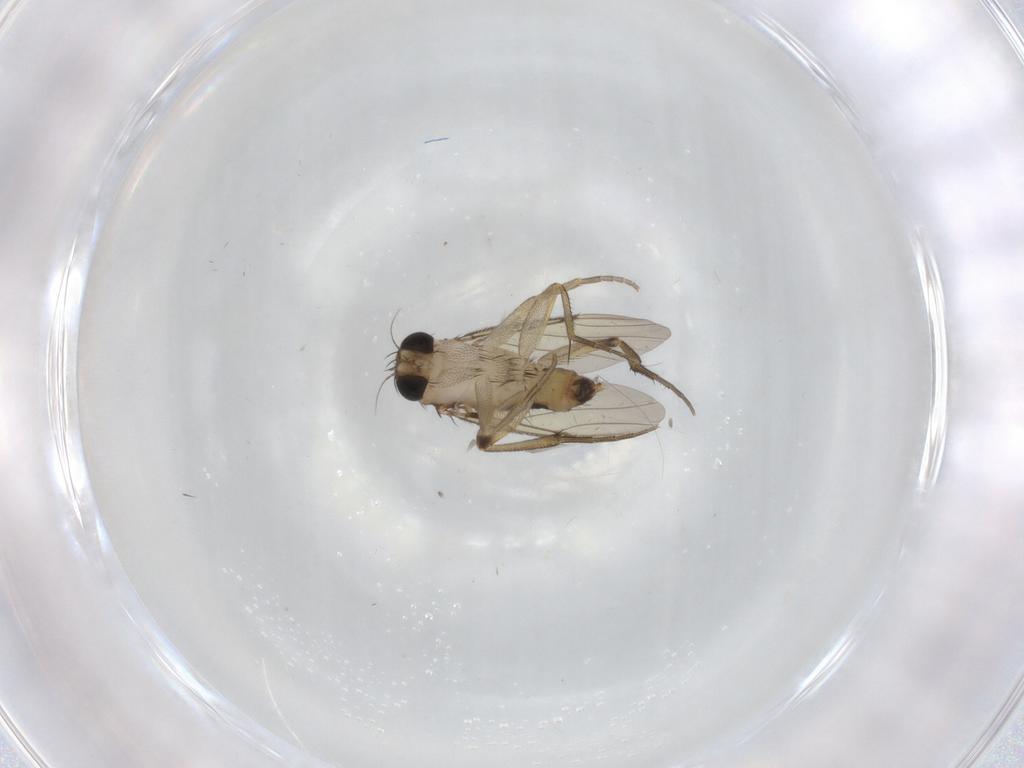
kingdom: Animalia
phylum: Arthropoda
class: Insecta
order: Diptera
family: Phoridae
